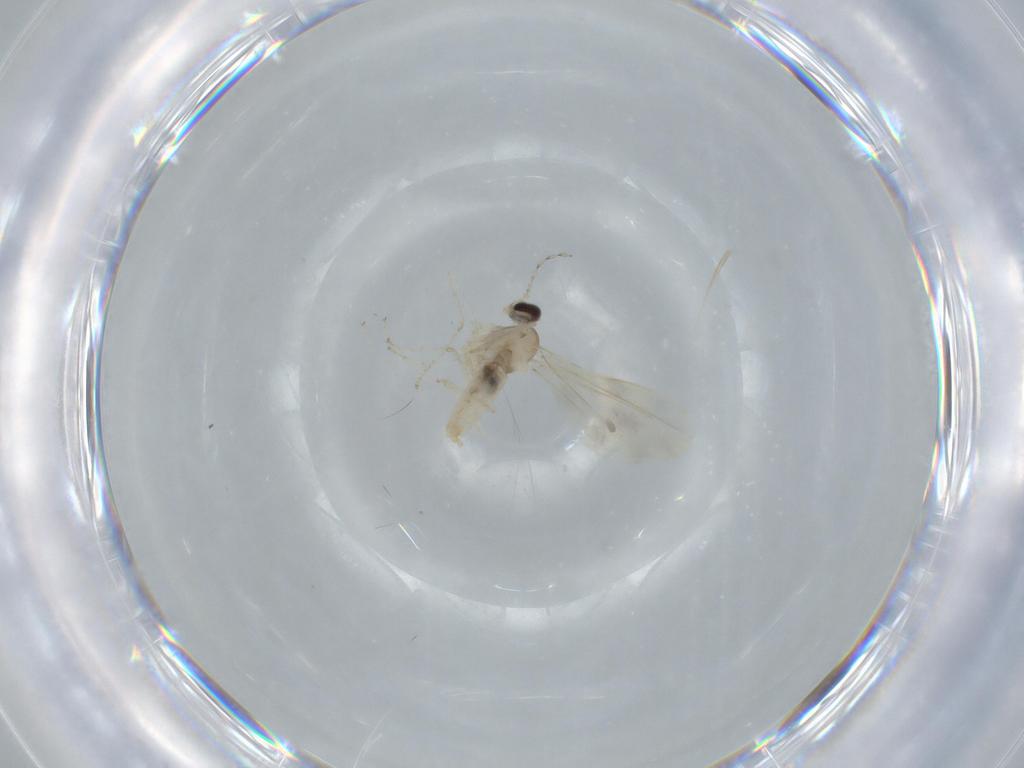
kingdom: Animalia
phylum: Arthropoda
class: Insecta
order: Diptera
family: Cecidomyiidae
